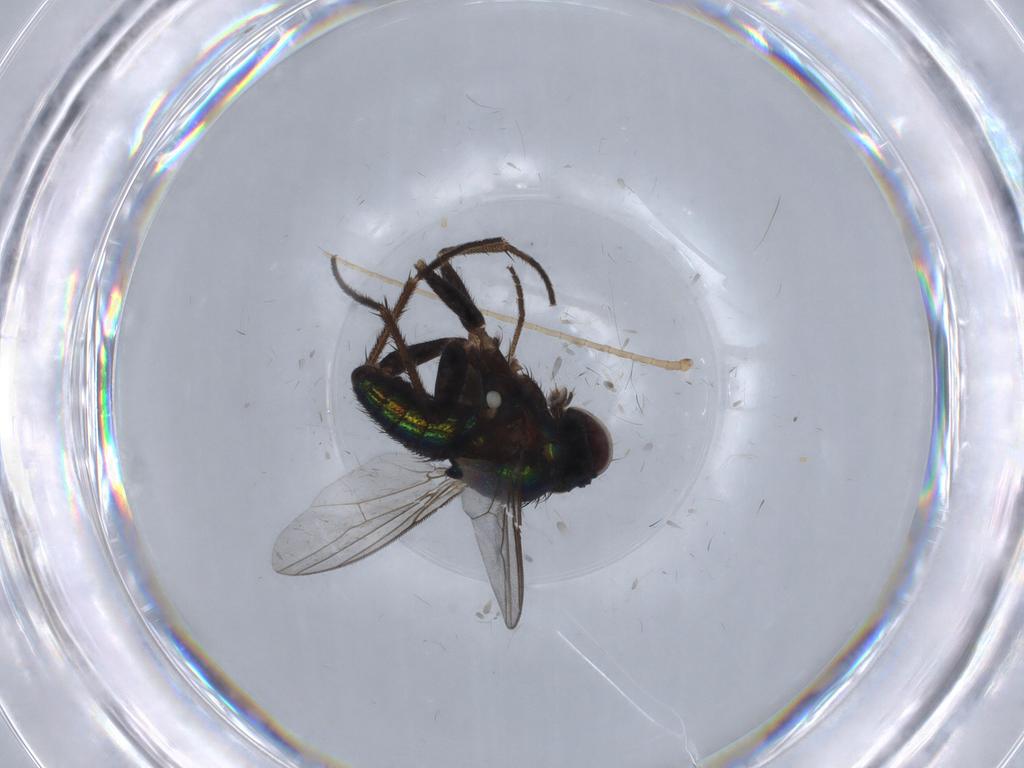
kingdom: Animalia
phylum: Arthropoda
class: Insecta
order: Diptera
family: Dolichopodidae
